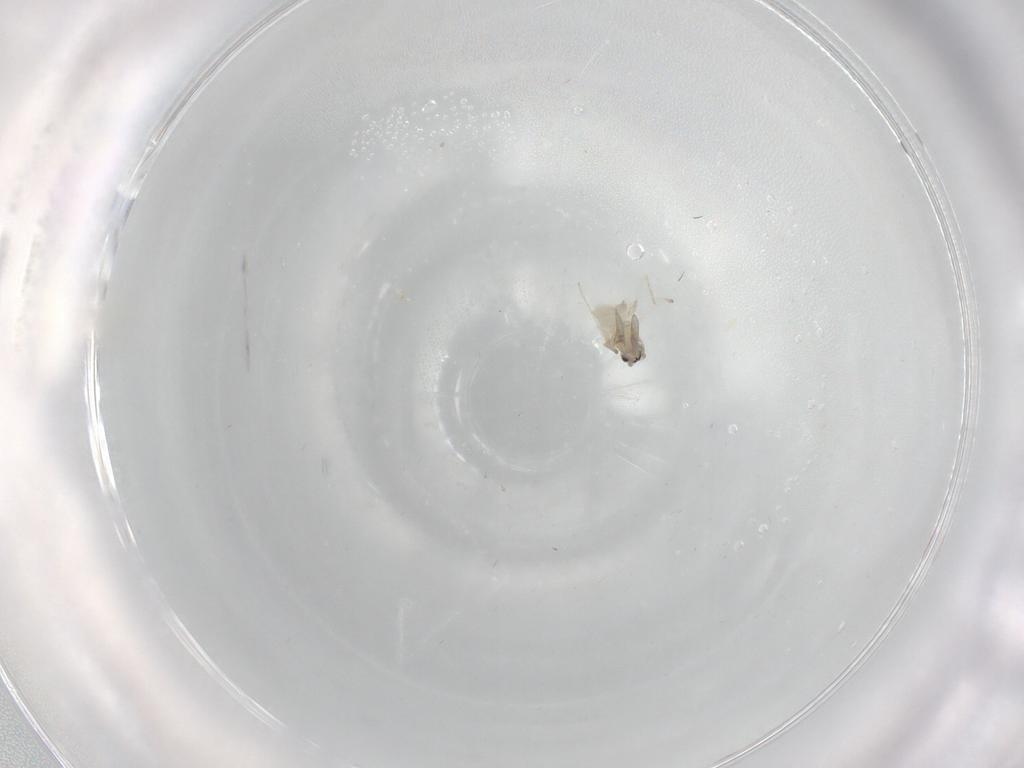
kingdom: Animalia
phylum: Arthropoda
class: Insecta
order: Diptera
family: Cecidomyiidae
